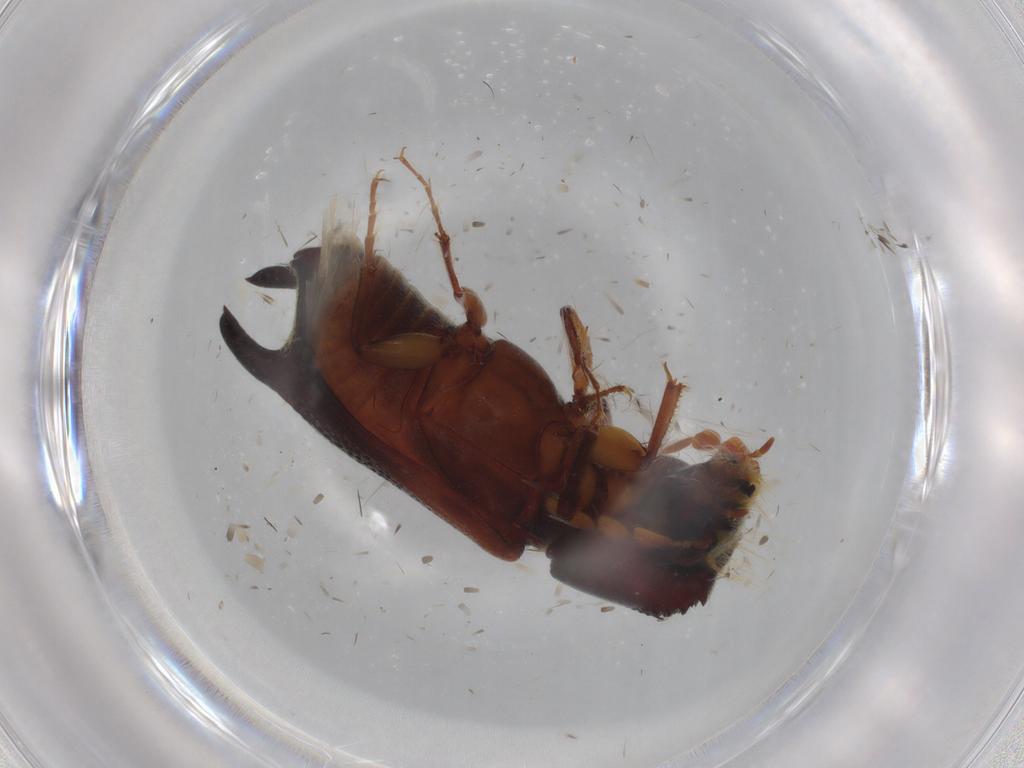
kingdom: Animalia
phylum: Arthropoda
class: Insecta
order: Coleoptera
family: Bostrichidae
